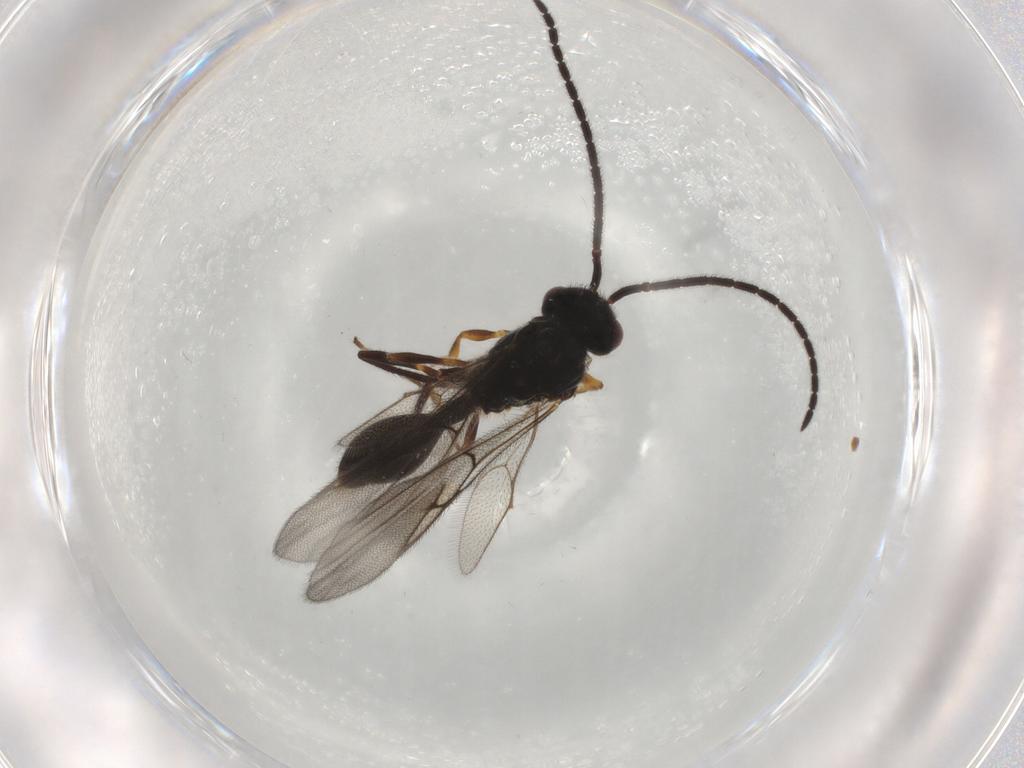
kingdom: Animalia
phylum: Arthropoda
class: Insecta
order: Hymenoptera
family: Diapriidae
